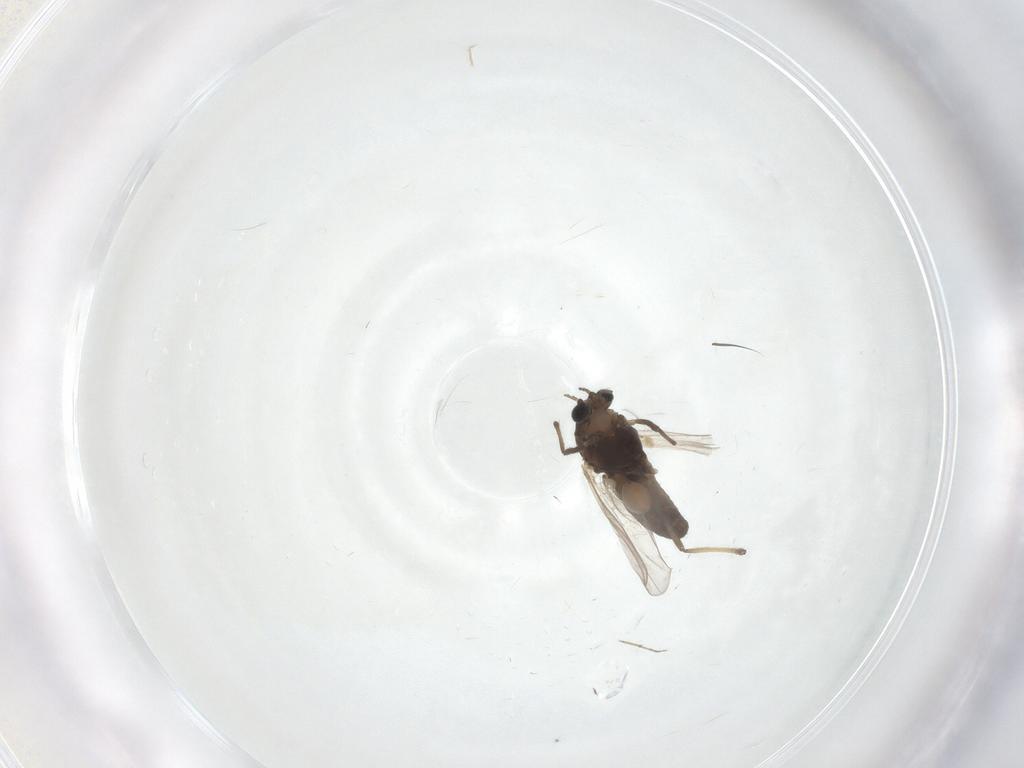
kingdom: Animalia
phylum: Arthropoda
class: Insecta
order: Diptera
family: Chironomidae
